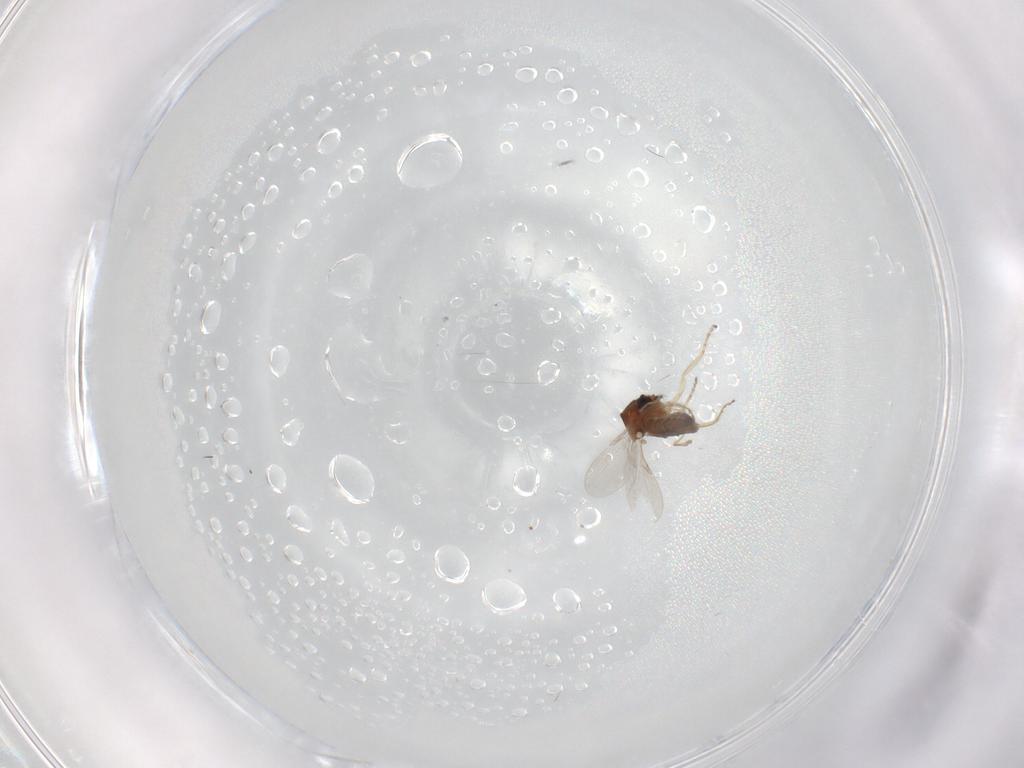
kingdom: Animalia
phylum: Arthropoda
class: Insecta
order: Diptera
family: Ceratopogonidae
